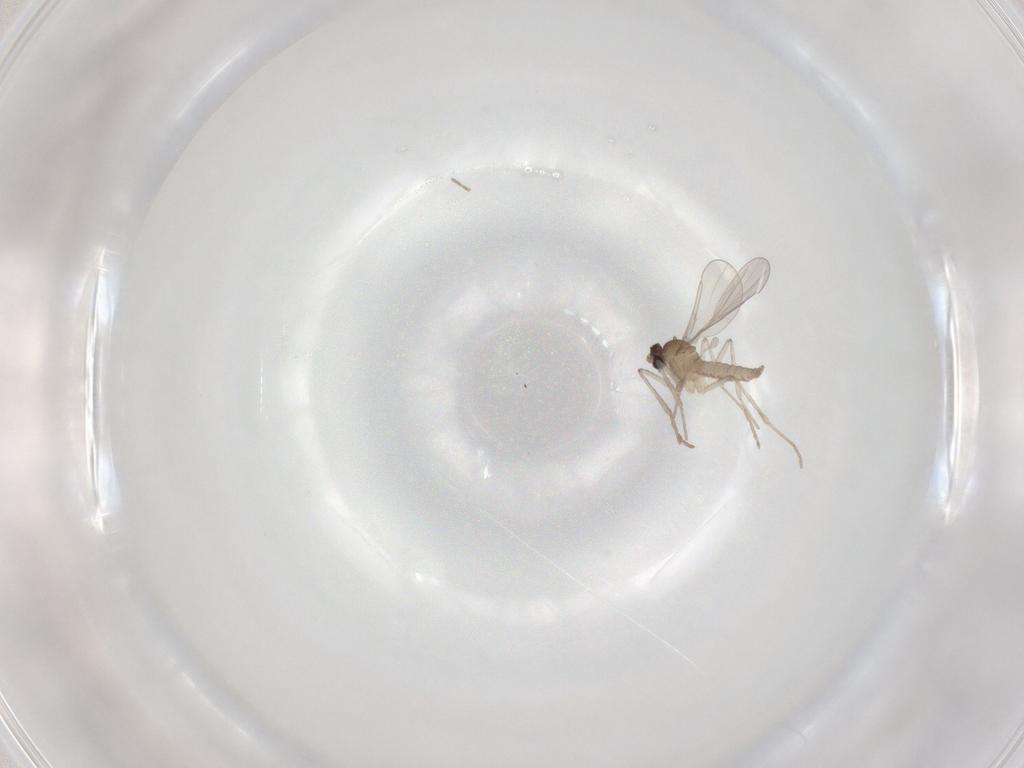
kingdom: Animalia
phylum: Arthropoda
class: Insecta
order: Diptera
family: Cecidomyiidae
